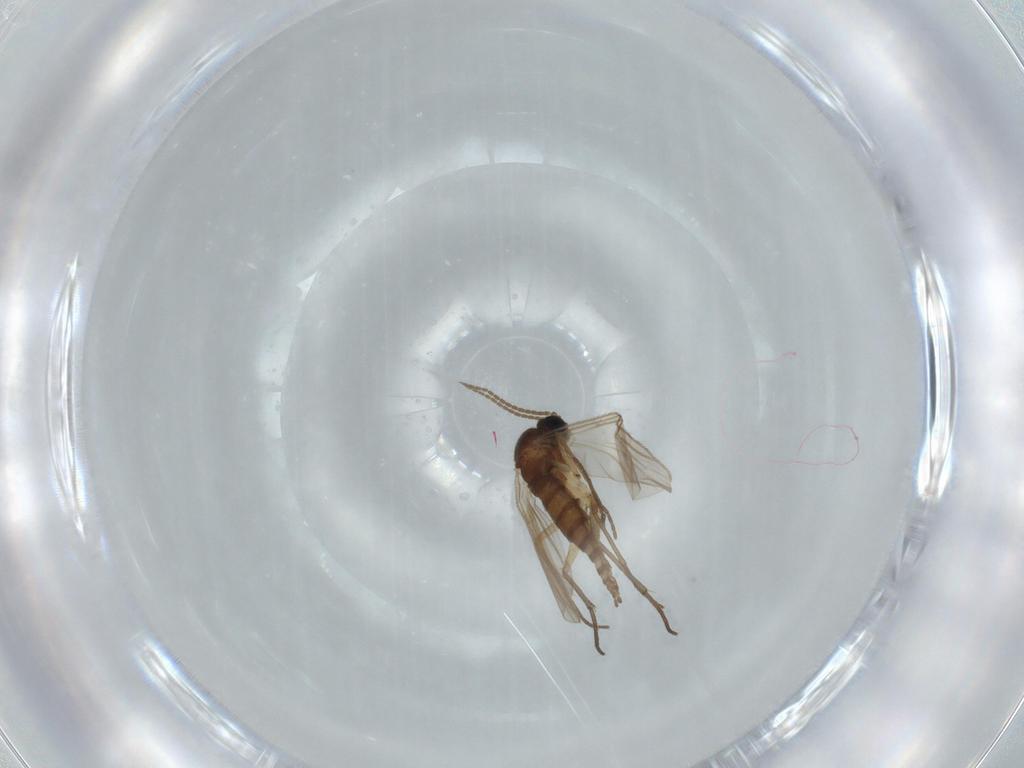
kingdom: Animalia
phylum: Arthropoda
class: Insecta
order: Diptera
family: Sciaridae
